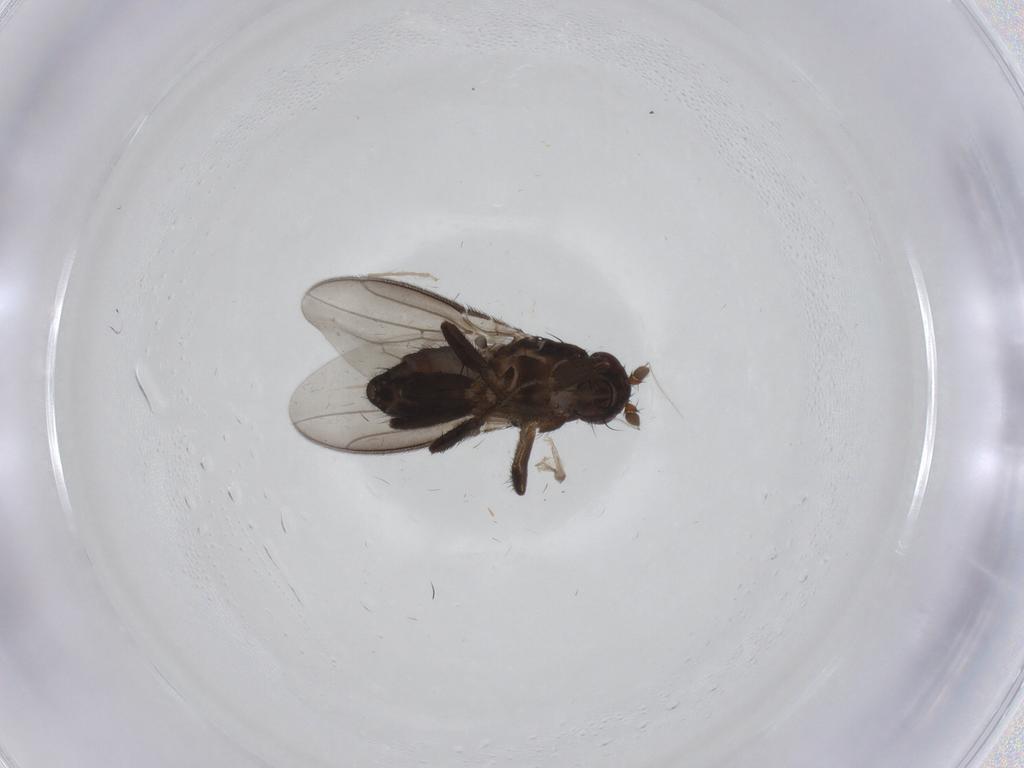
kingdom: Animalia
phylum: Arthropoda
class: Insecta
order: Diptera
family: Sphaeroceridae
